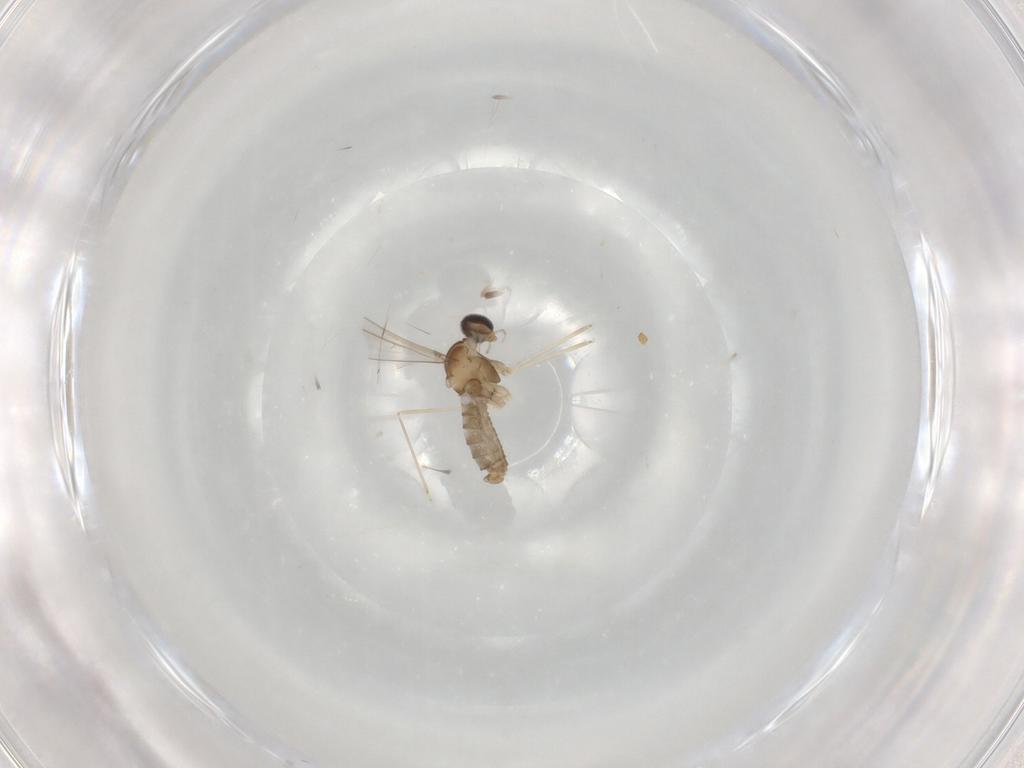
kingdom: Animalia
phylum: Arthropoda
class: Insecta
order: Diptera
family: Cecidomyiidae
